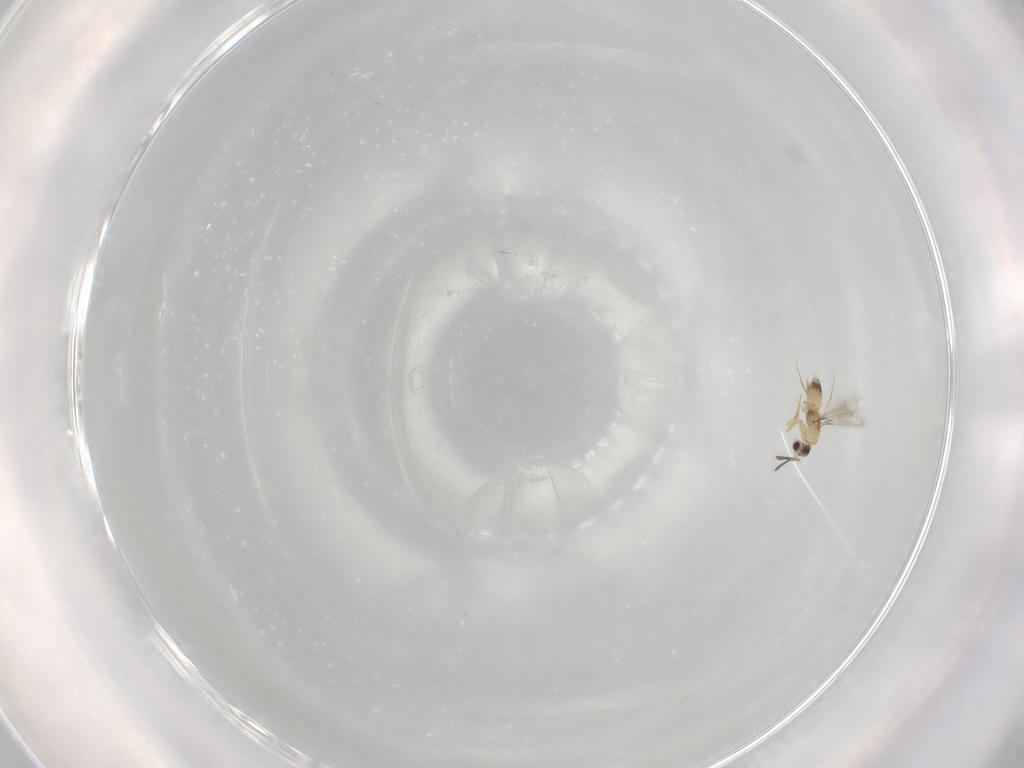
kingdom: Animalia
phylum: Arthropoda
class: Insecta
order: Hymenoptera
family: Mymaridae
